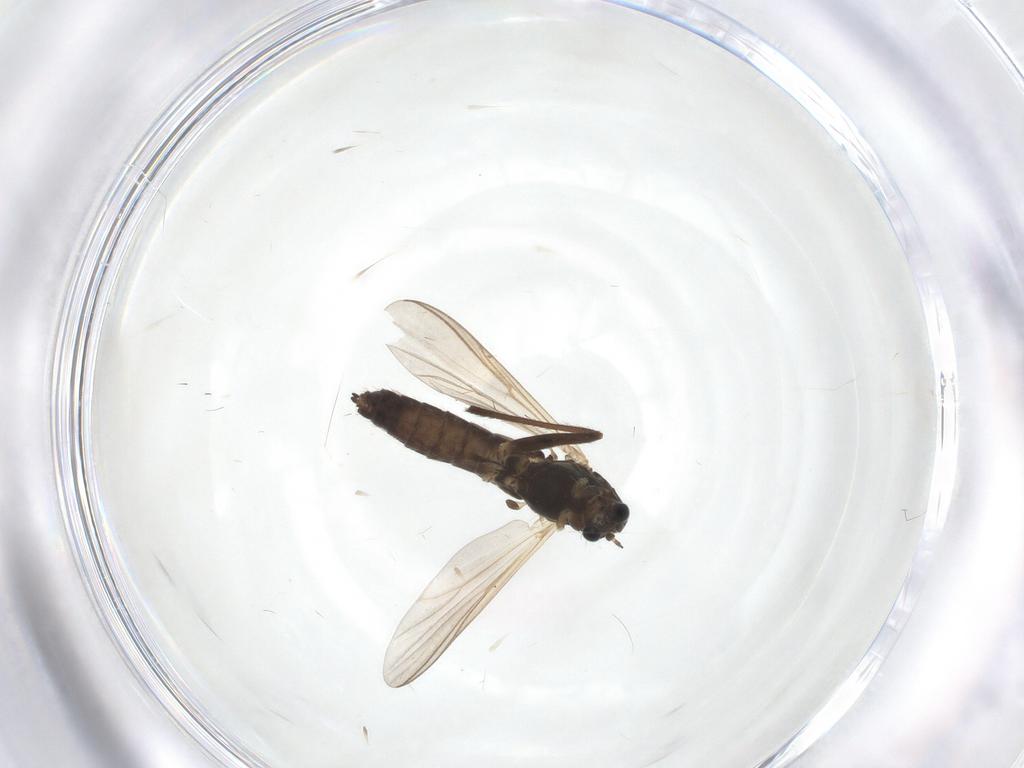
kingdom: Animalia
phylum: Arthropoda
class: Insecta
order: Diptera
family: Chironomidae
